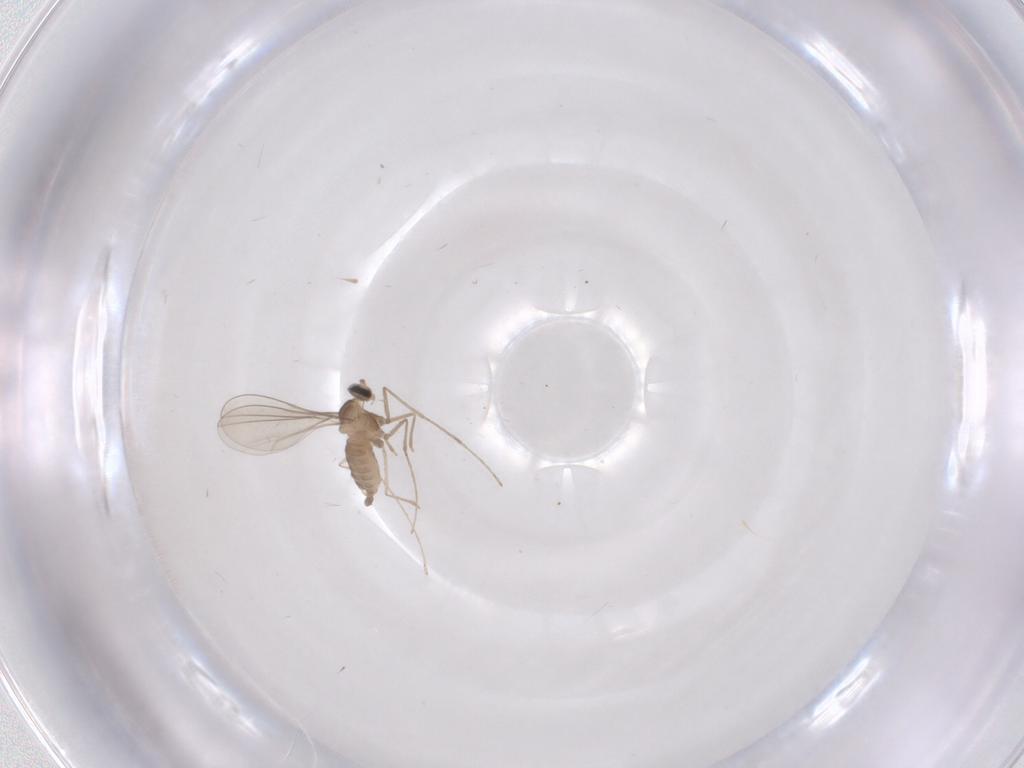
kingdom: Animalia
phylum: Arthropoda
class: Insecta
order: Diptera
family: Cecidomyiidae
